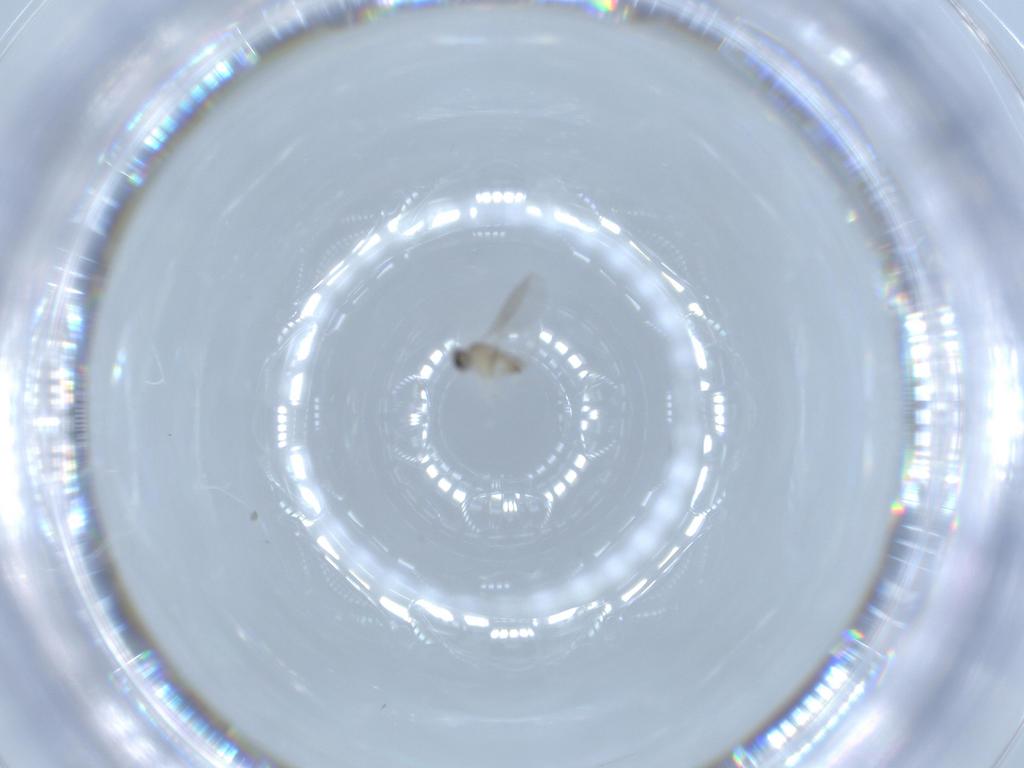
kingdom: Animalia
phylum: Arthropoda
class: Insecta
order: Diptera
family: Cecidomyiidae
